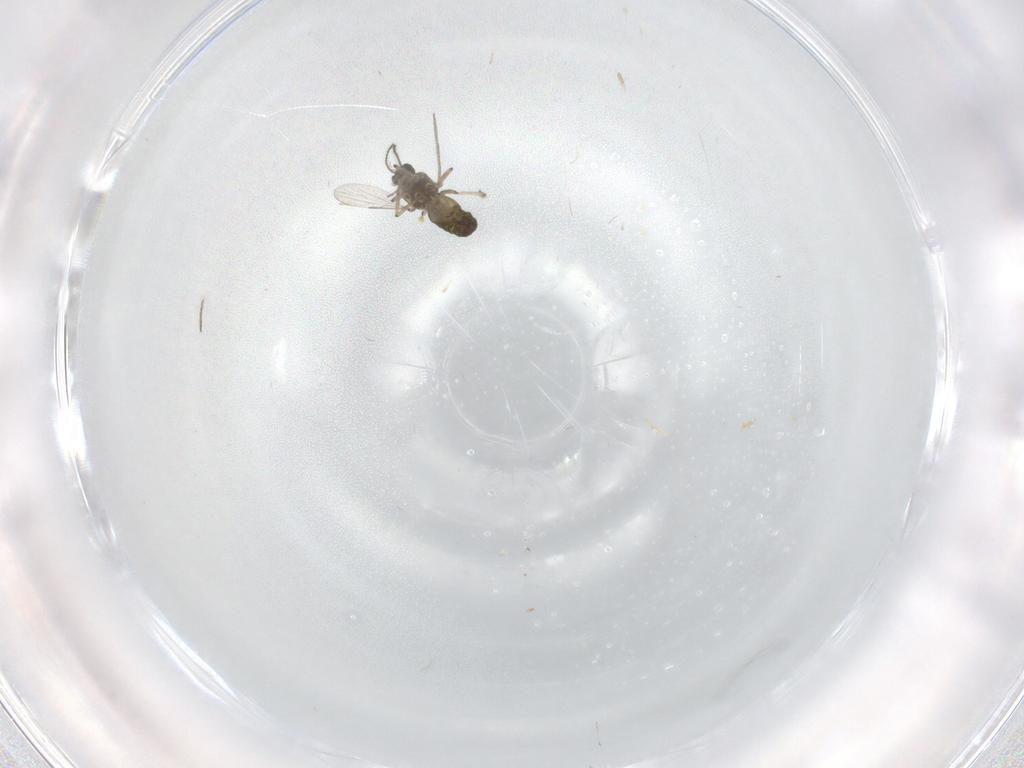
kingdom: Animalia
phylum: Arthropoda
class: Insecta
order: Diptera
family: Ceratopogonidae
